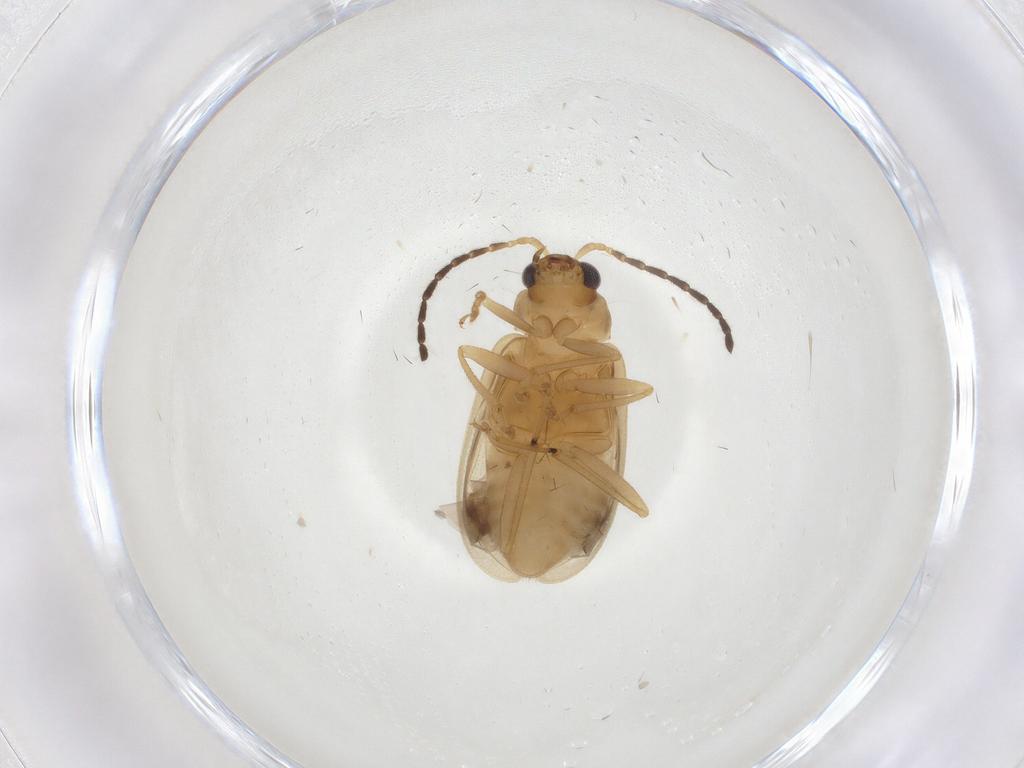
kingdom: Animalia
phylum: Arthropoda
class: Insecta
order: Coleoptera
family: Chrysomelidae
